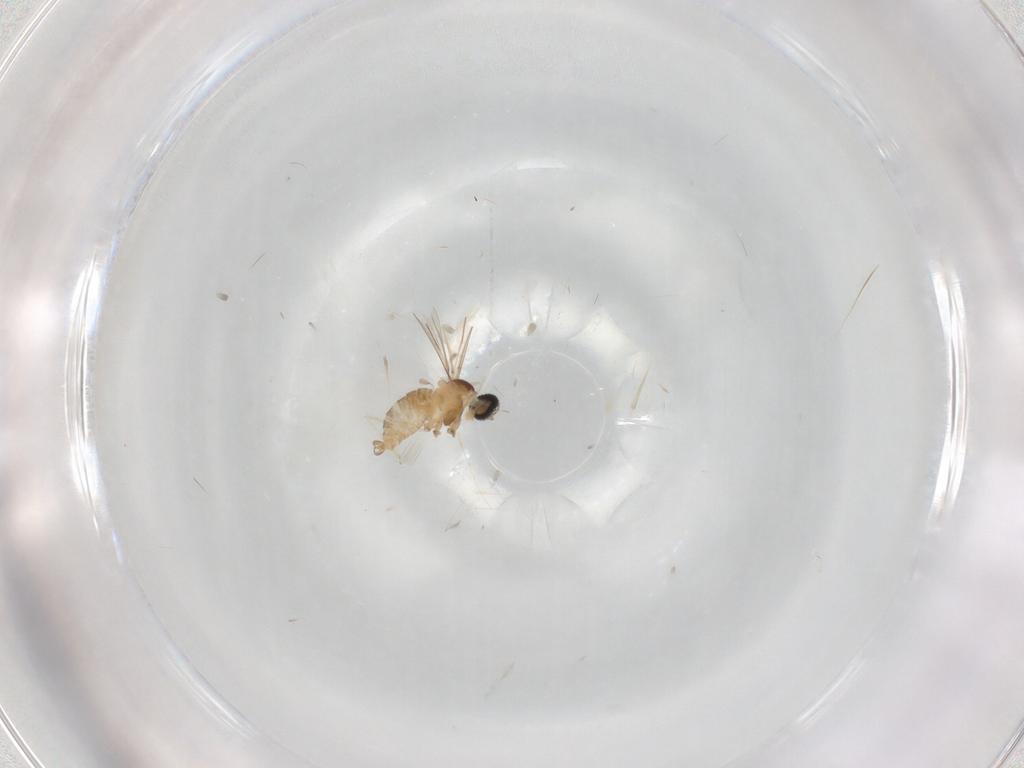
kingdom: Animalia
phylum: Arthropoda
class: Insecta
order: Diptera
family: Cecidomyiidae
